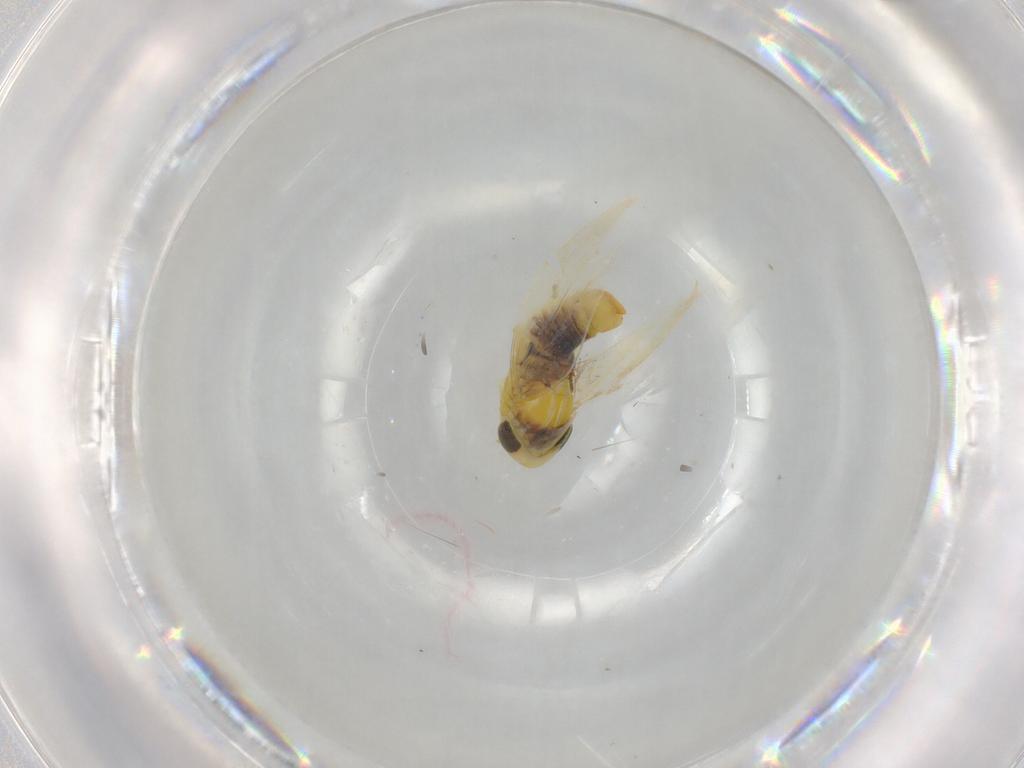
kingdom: Animalia
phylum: Arthropoda
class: Insecta
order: Hemiptera
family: Cicadellidae
